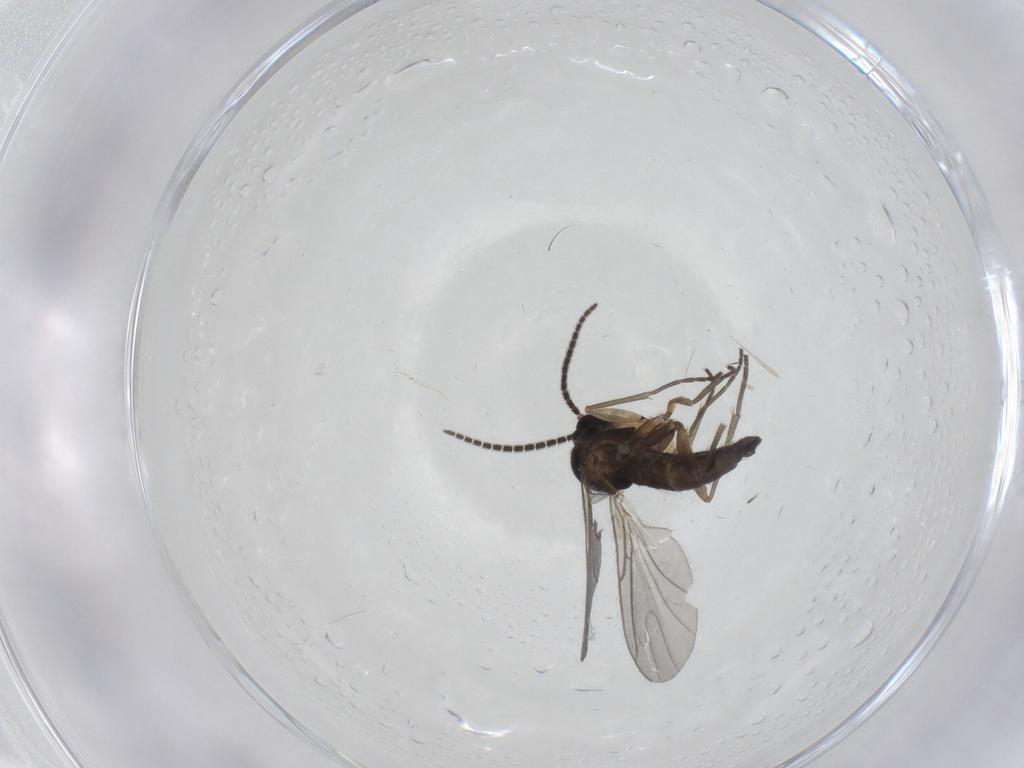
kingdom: Animalia
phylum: Arthropoda
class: Insecta
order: Diptera
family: Sciaridae
